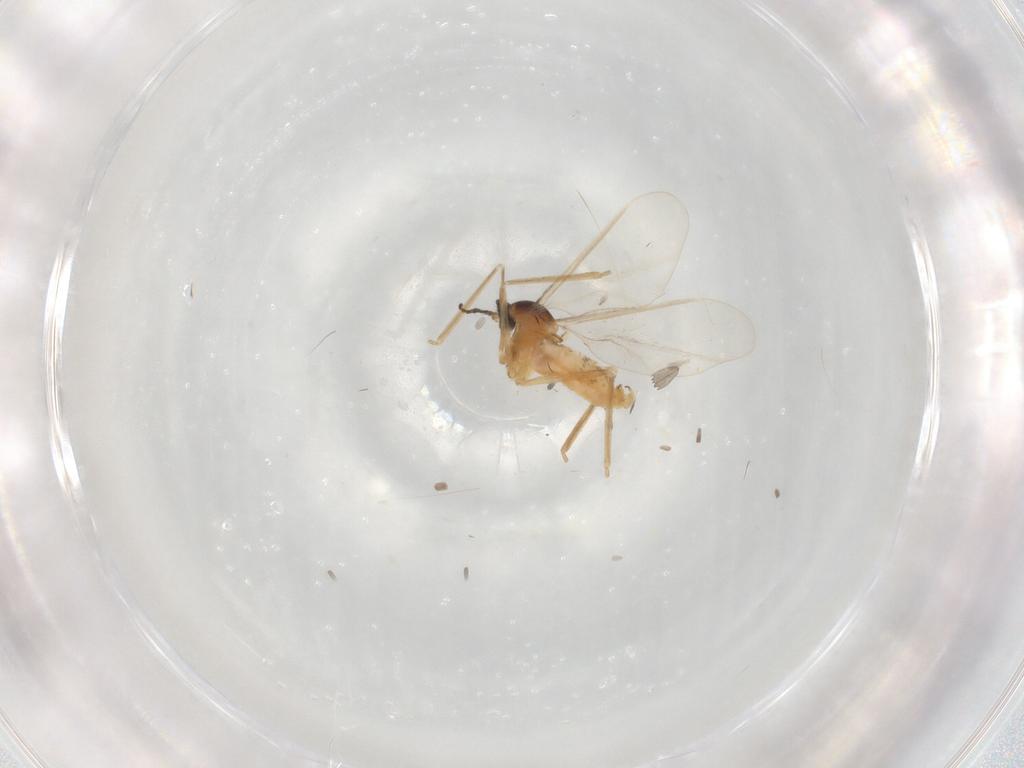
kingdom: Animalia
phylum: Arthropoda
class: Insecta
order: Diptera
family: Cecidomyiidae
